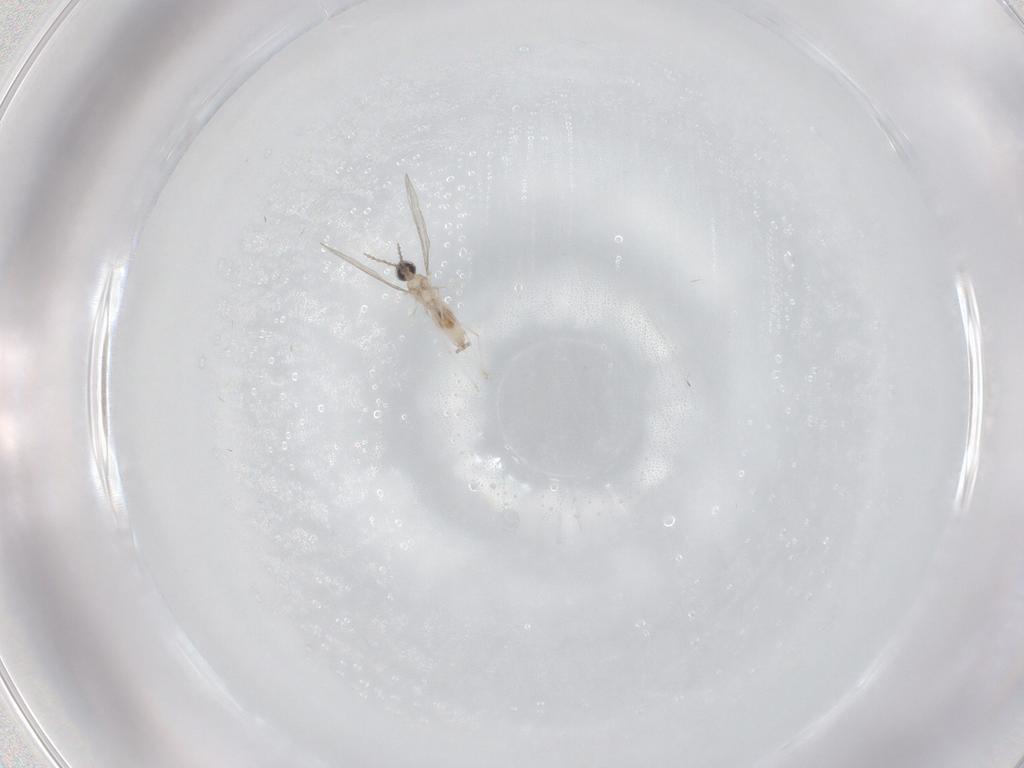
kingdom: Animalia
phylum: Arthropoda
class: Insecta
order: Diptera
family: Cecidomyiidae
